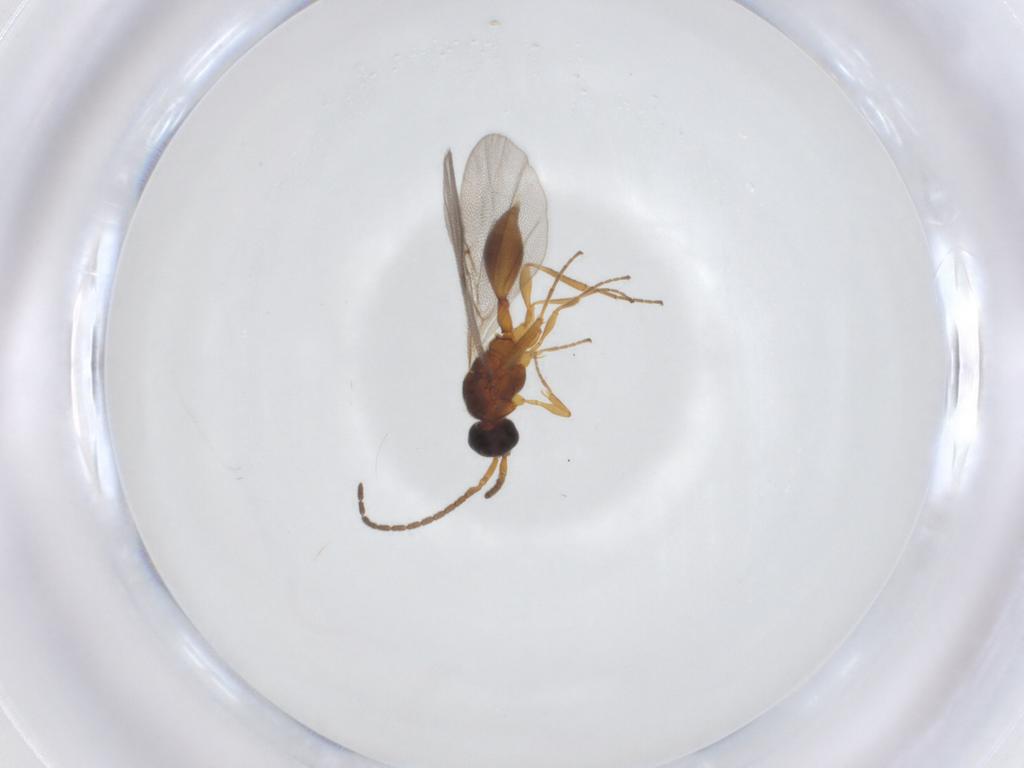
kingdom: Animalia
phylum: Arthropoda
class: Insecta
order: Hymenoptera
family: Diapriidae
